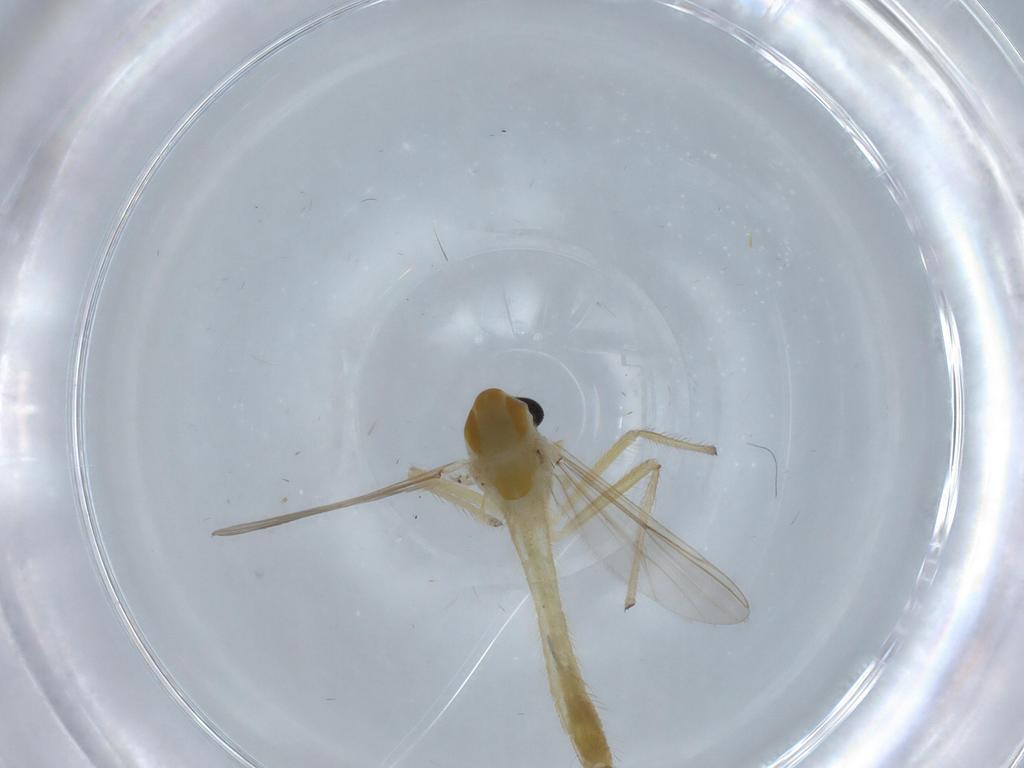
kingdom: Animalia
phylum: Arthropoda
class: Insecta
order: Diptera
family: Chironomidae
